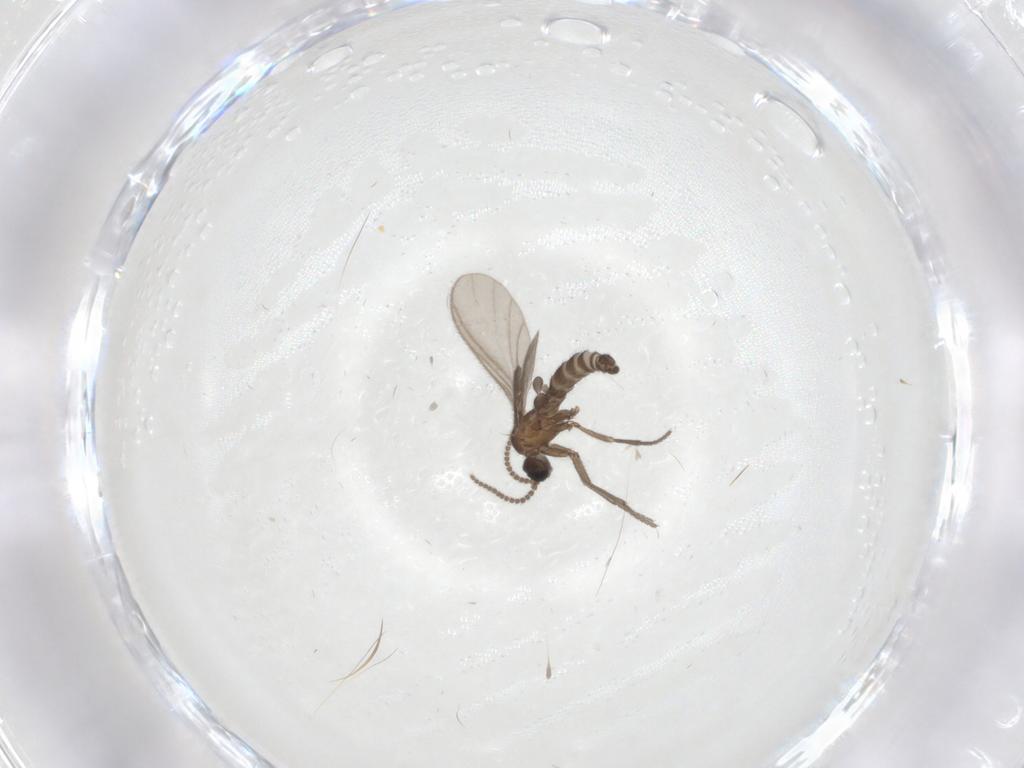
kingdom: Animalia
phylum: Arthropoda
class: Insecta
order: Diptera
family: Sciaridae
